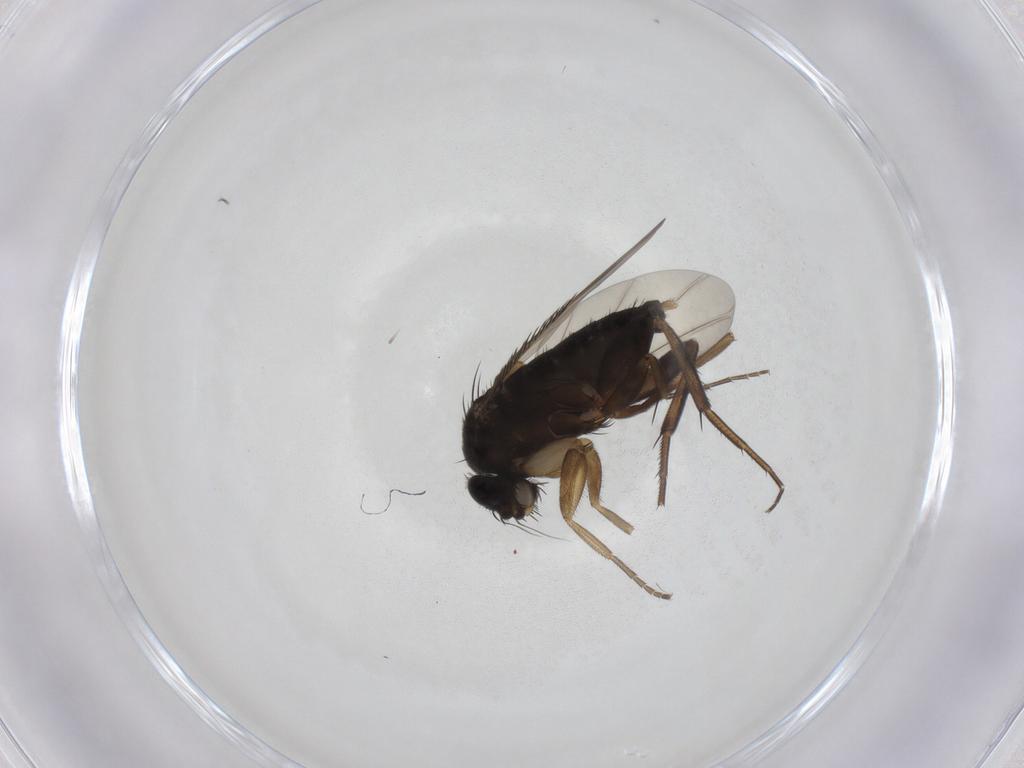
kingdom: Animalia
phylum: Arthropoda
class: Insecta
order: Diptera
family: Phoridae
